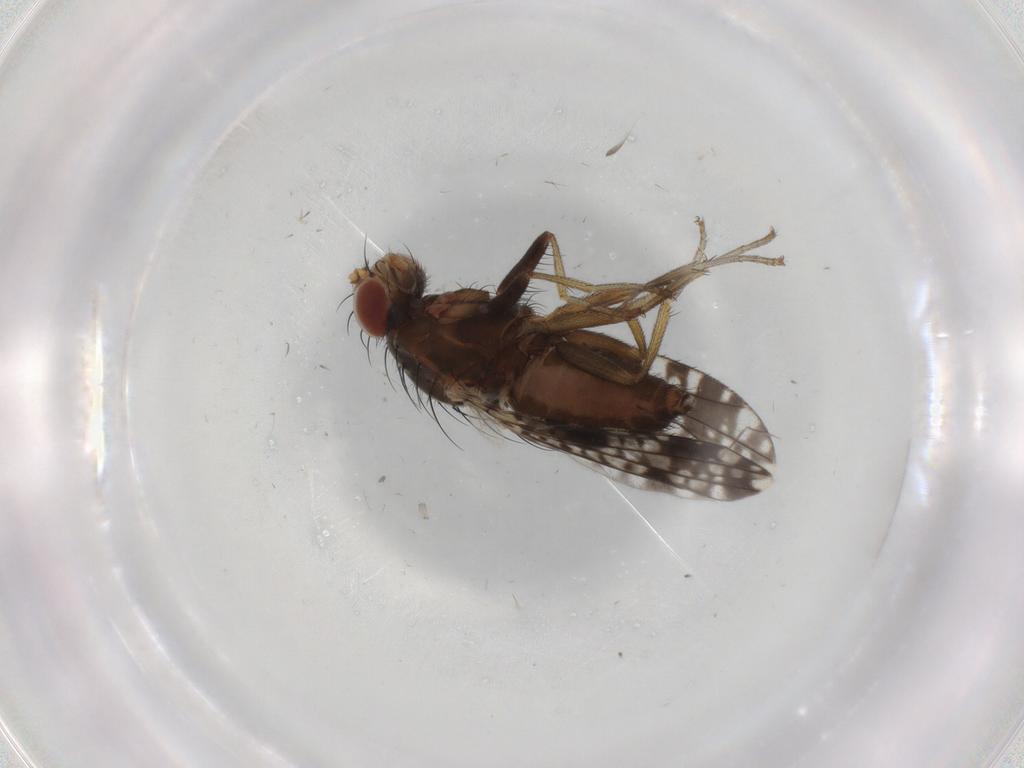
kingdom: Animalia
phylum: Arthropoda
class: Insecta
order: Diptera
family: Tephritidae
